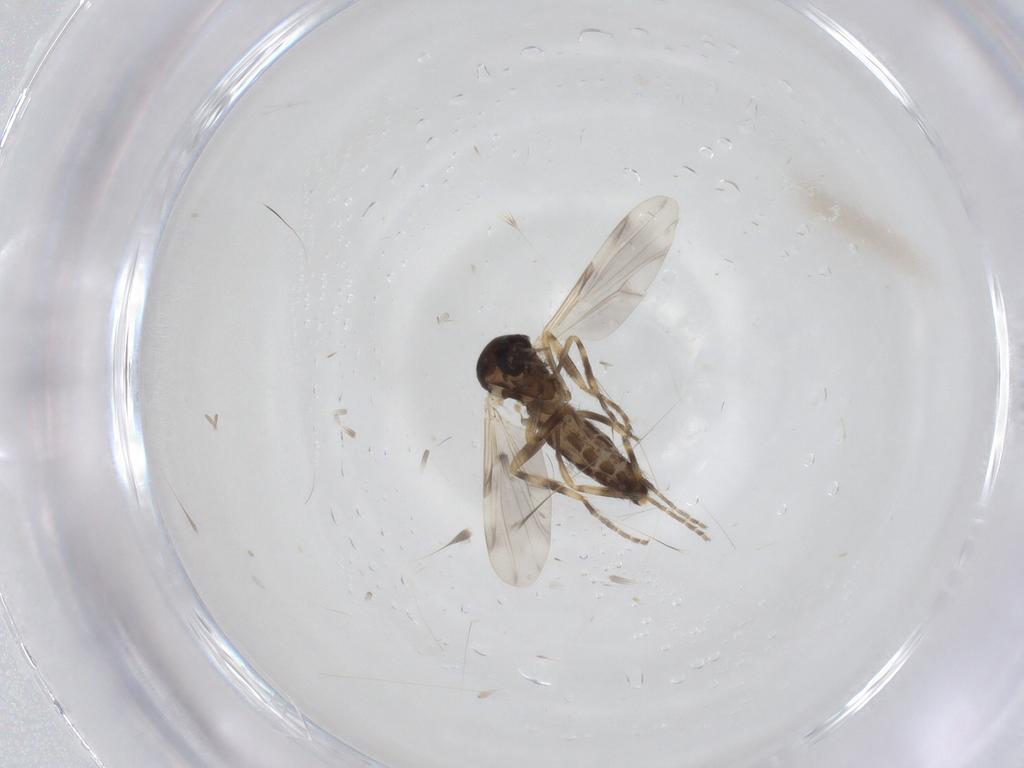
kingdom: Animalia
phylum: Arthropoda
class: Insecta
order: Diptera
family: Ceratopogonidae
